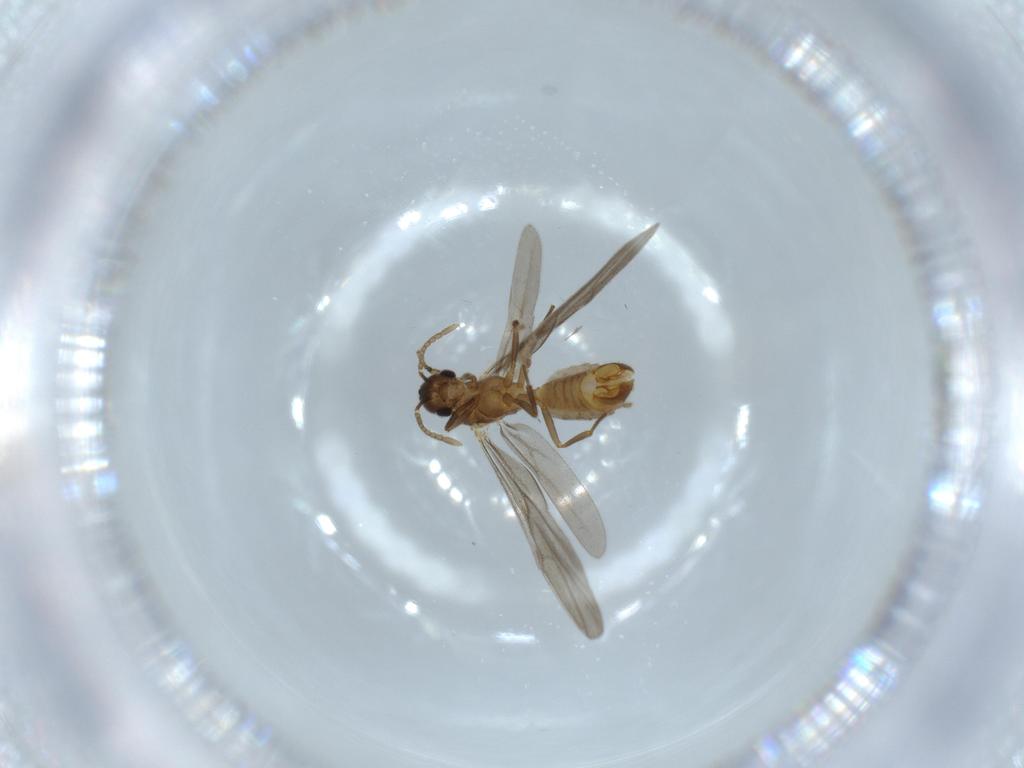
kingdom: Animalia
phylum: Arthropoda
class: Insecta
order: Hymenoptera
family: Formicidae
